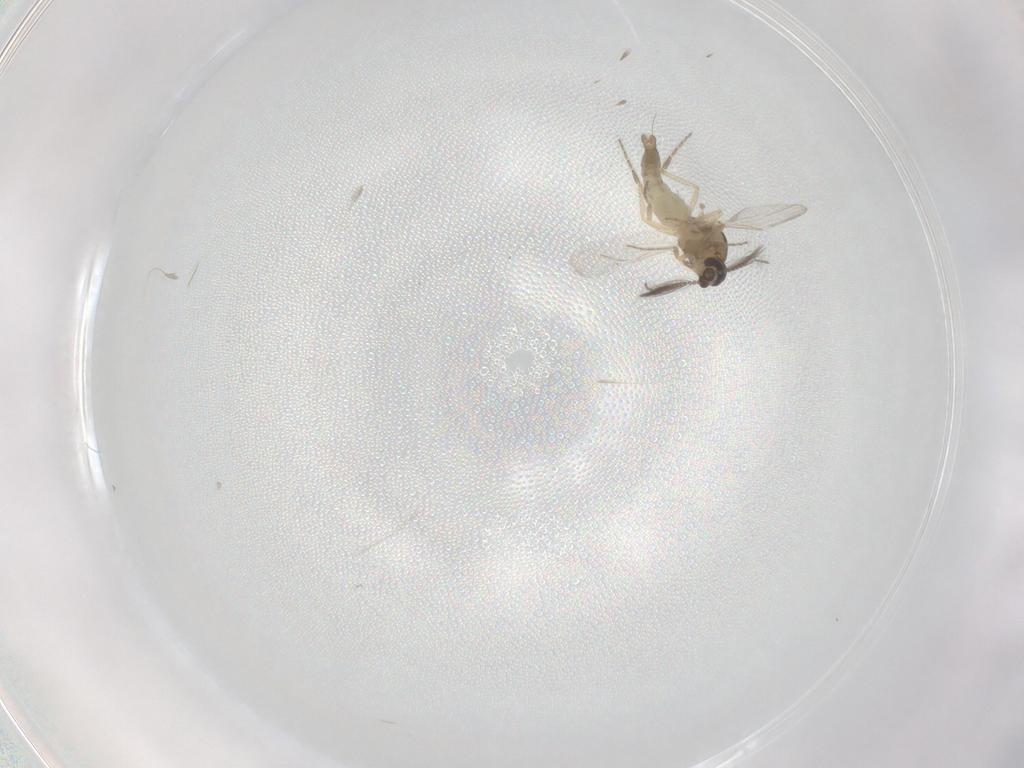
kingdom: Animalia
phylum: Arthropoda
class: Insecta
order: Diptera
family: Ceratopogonidae
